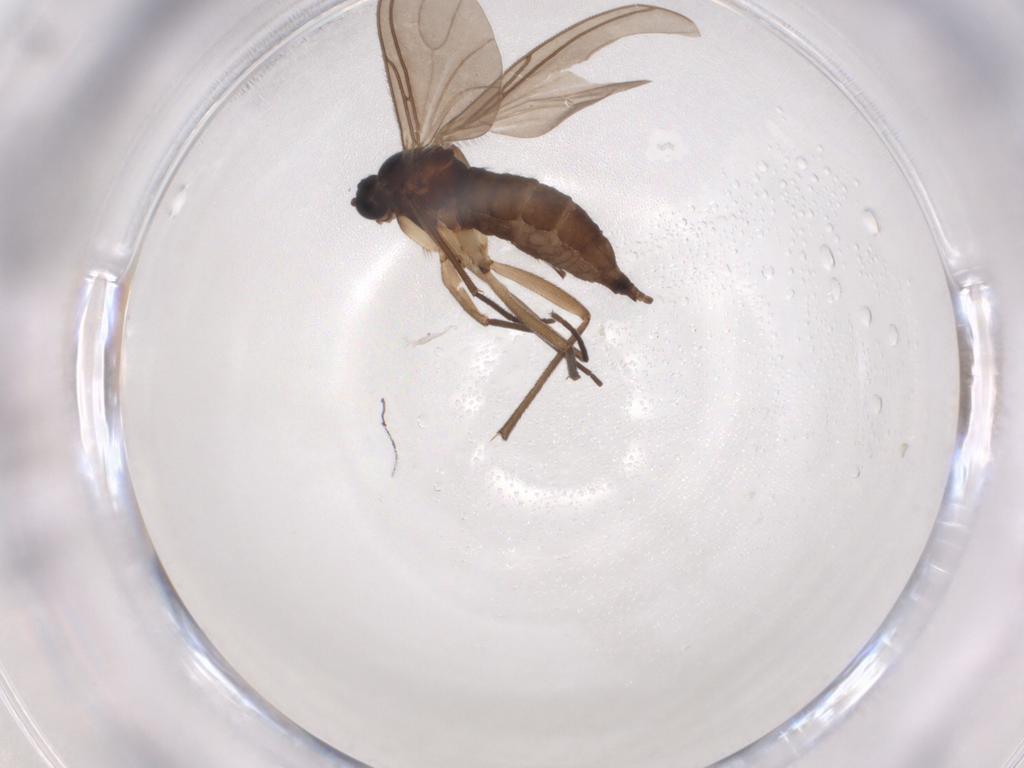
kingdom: Animalia
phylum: Arthropoda
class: Insecta
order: Diptera
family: Sciaridae
